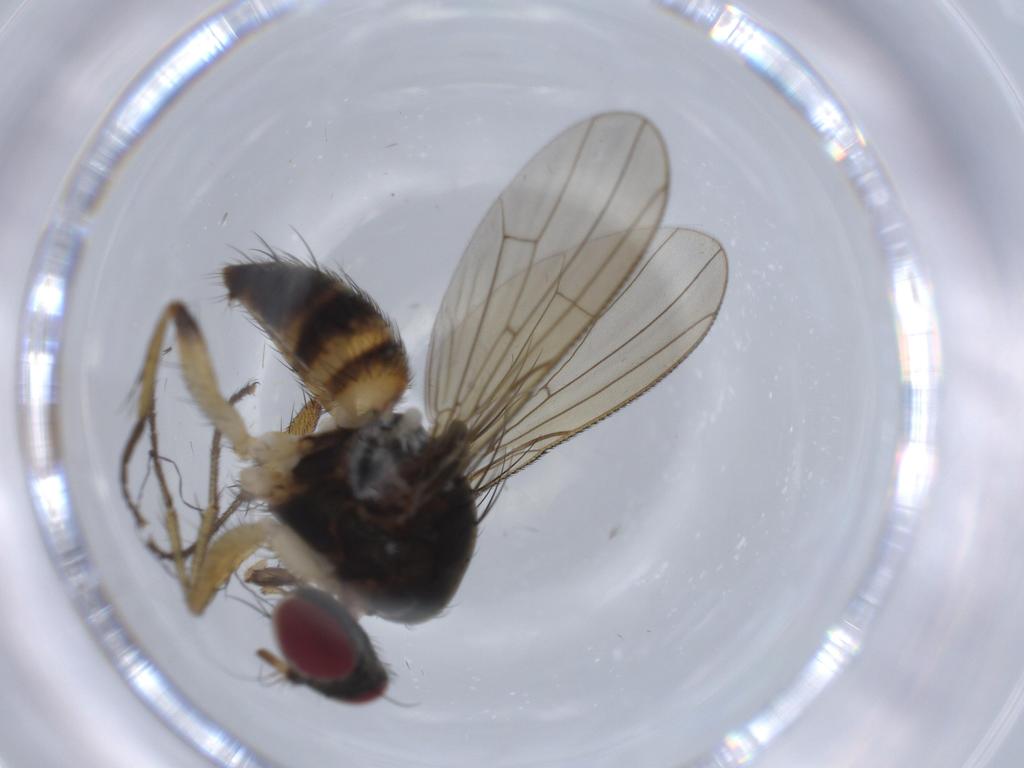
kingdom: Animalia
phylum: Arthropoda
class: Insecta
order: Diptera
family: Muscidae
